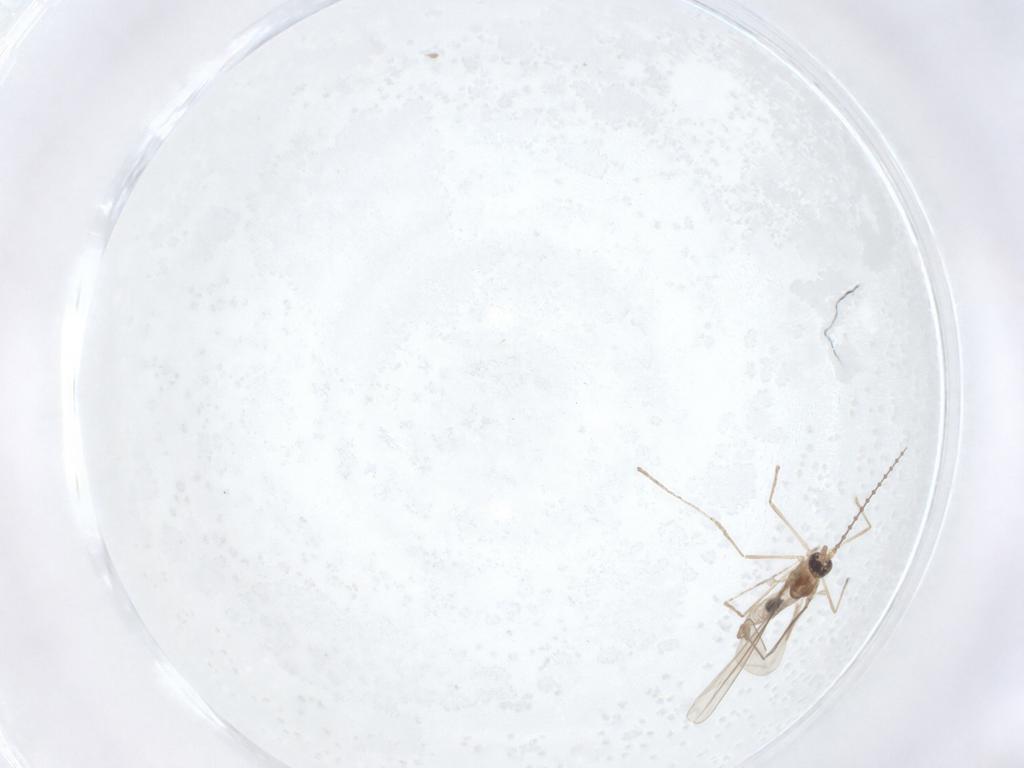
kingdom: Animalia
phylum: Arthropoda
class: Insecta
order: Diptera
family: Cecidomyiidae
